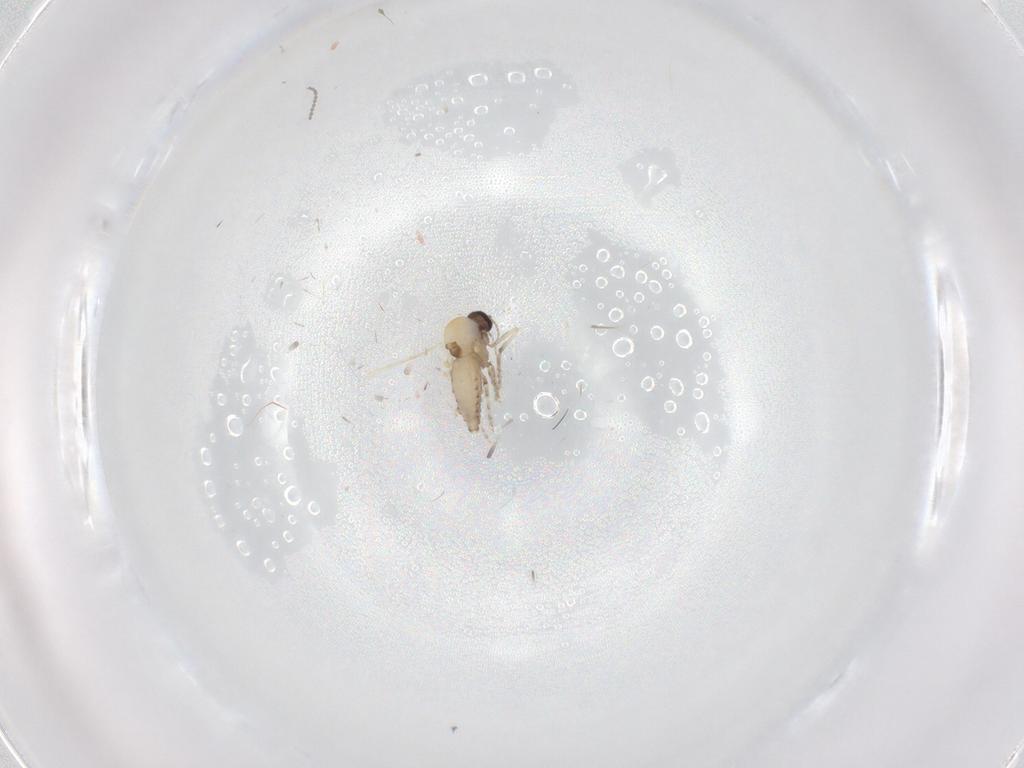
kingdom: Animalia
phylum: Arthropoda
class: Insecta
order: Diptera
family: Cecidomyiidae
